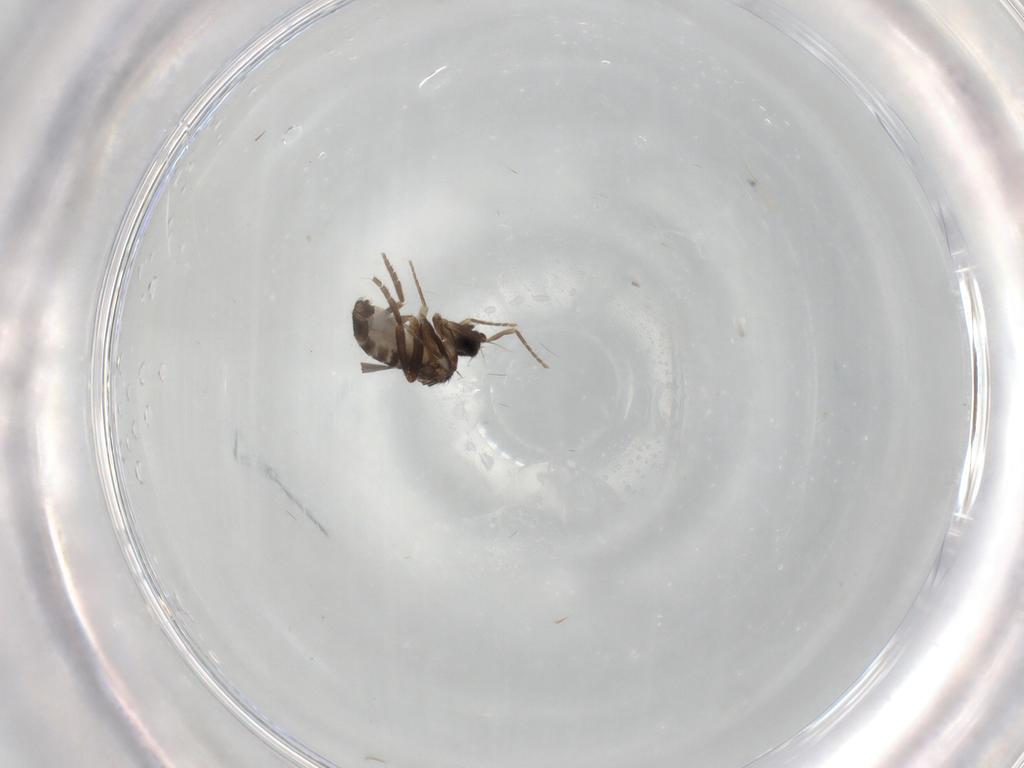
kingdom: Animalia
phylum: Arthropoda
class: Insecta
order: Diptera
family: Phoridae
